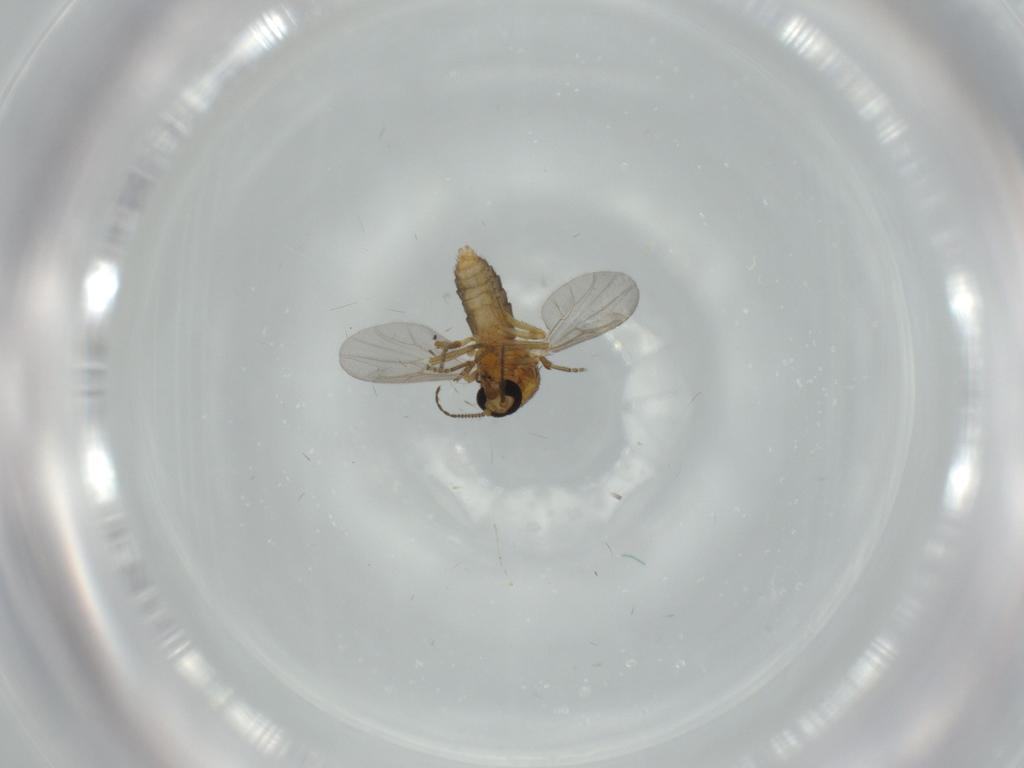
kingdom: Animalia
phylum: Arthropoda
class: Insecta
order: Diptera
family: Ceratopogonidae
